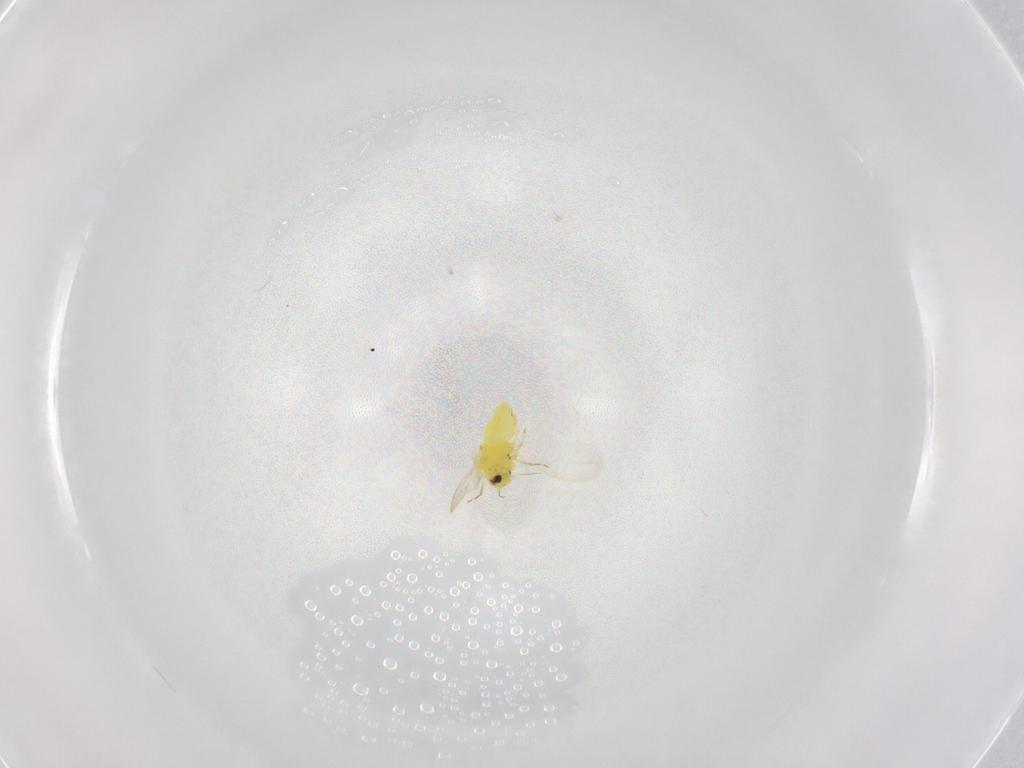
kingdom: Animalia
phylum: Arthropoda
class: Insecta
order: Hemiptera
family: Aleyrodidae
